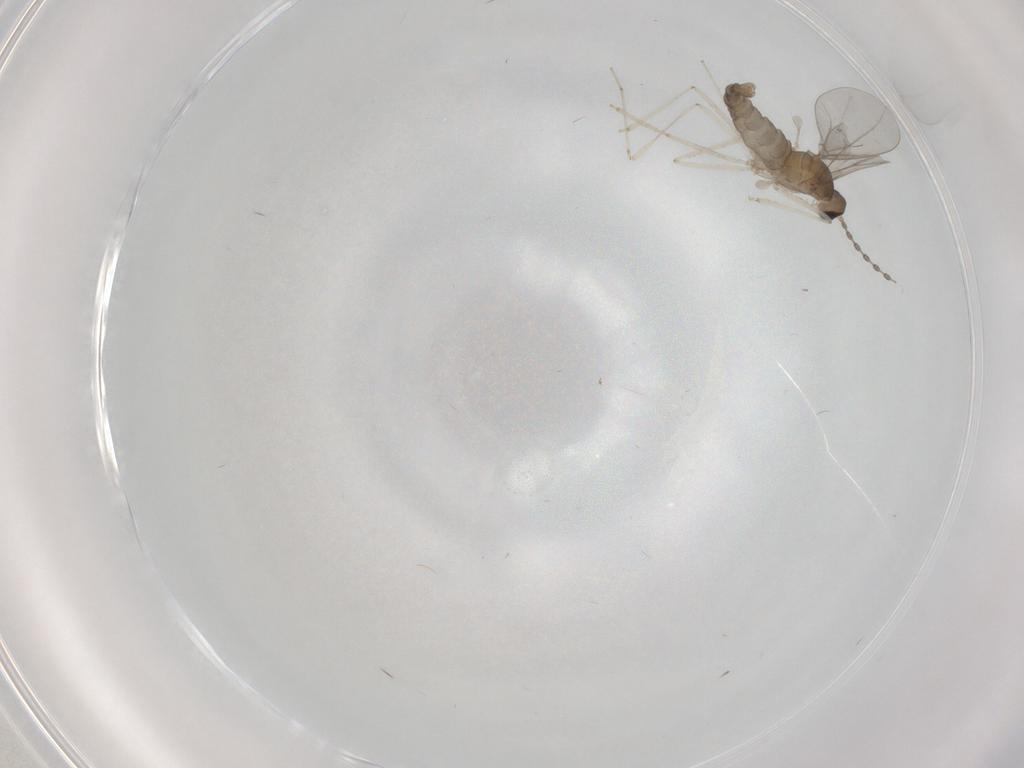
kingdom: Animalia
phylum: Arthropoda
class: Insecta
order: Diptera
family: Cecidomyiidae
